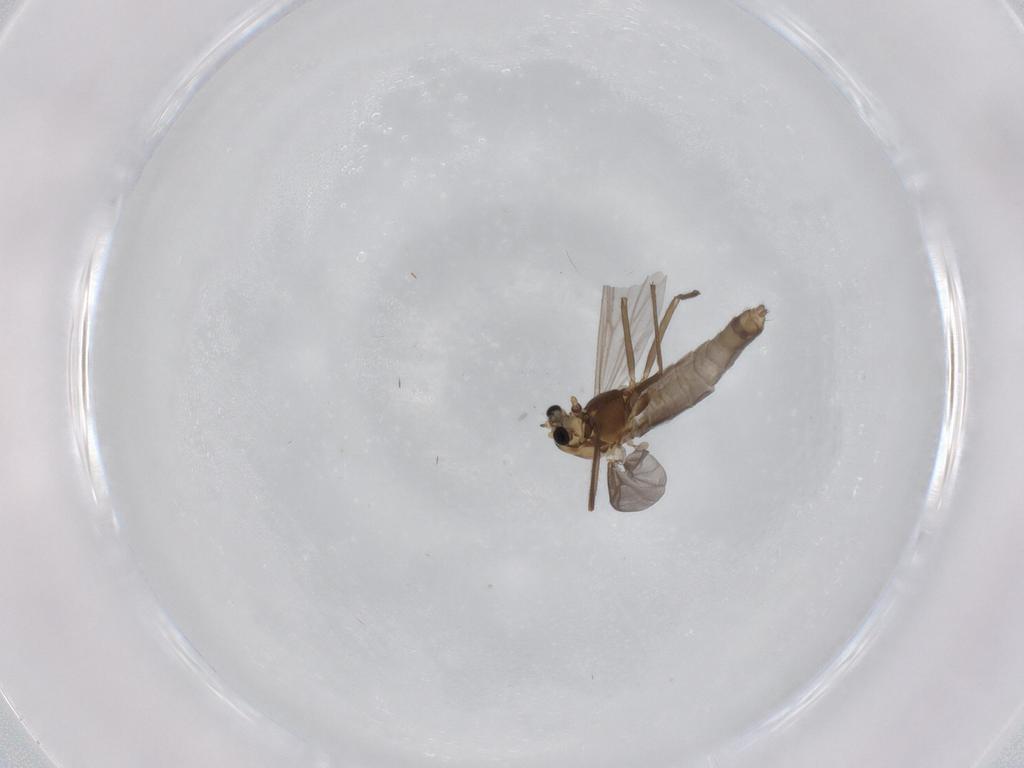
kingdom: Animalia
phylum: Arthropoda
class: Insecta
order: Diptera
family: Chironomidae
